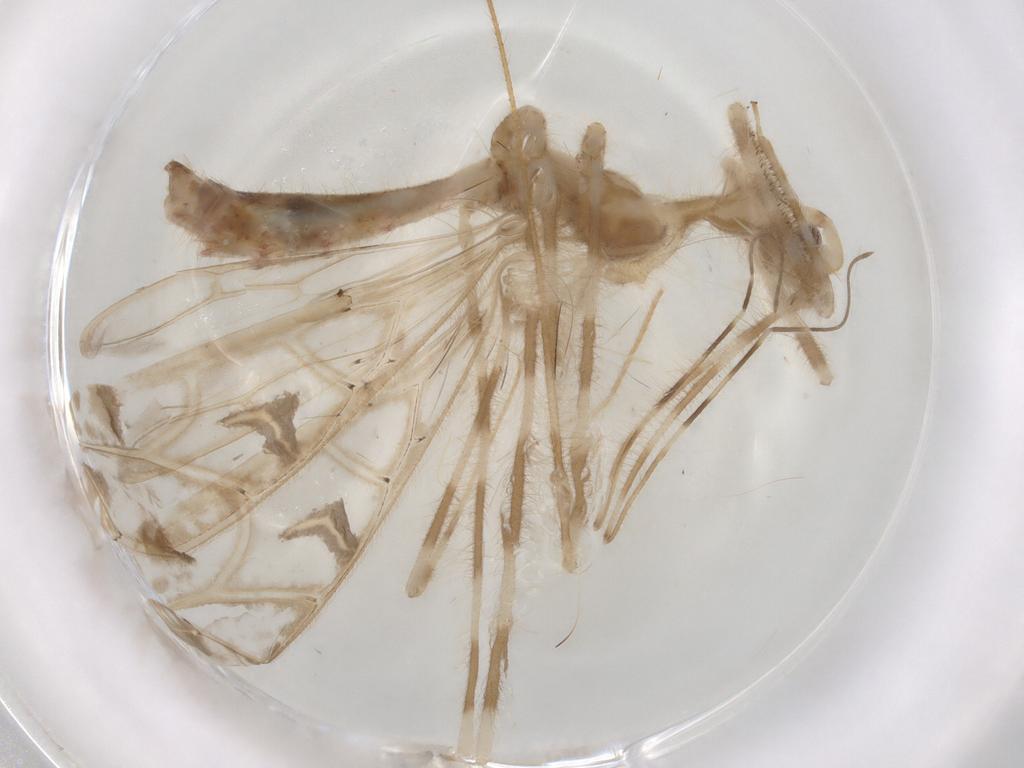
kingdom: Animalia
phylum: Arthropoda
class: Insecta
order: Hemiptera
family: Reduviidae
